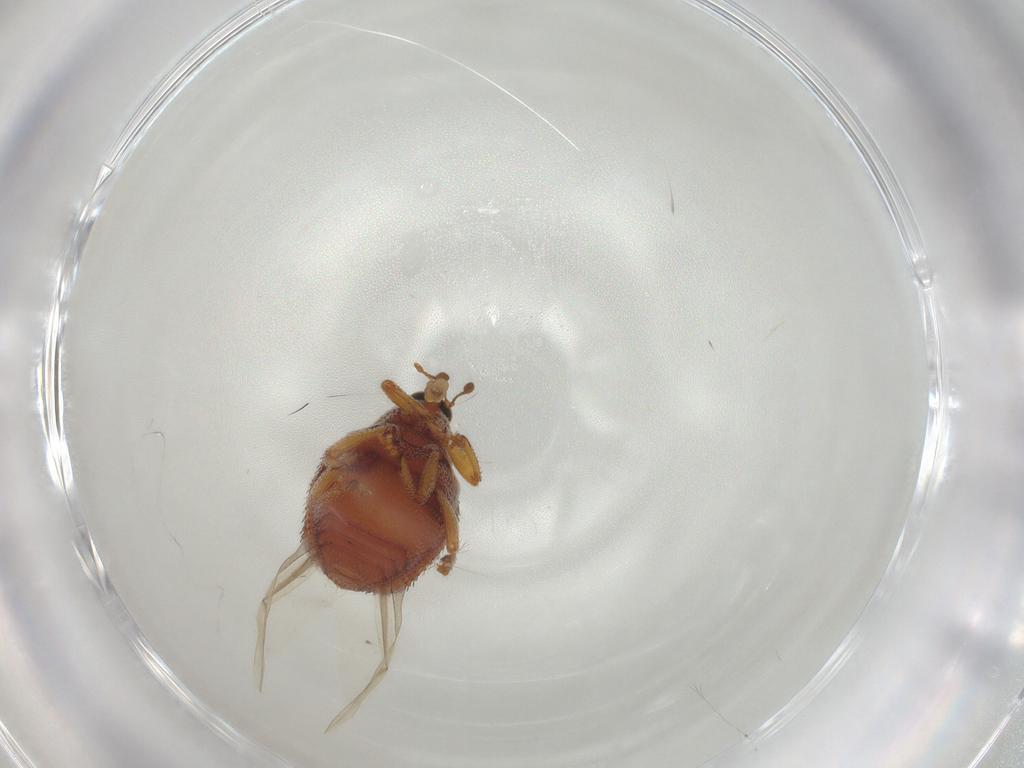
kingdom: Animalia
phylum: Arthropoda
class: Insecta
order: Coleoptera
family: Curculionidae
